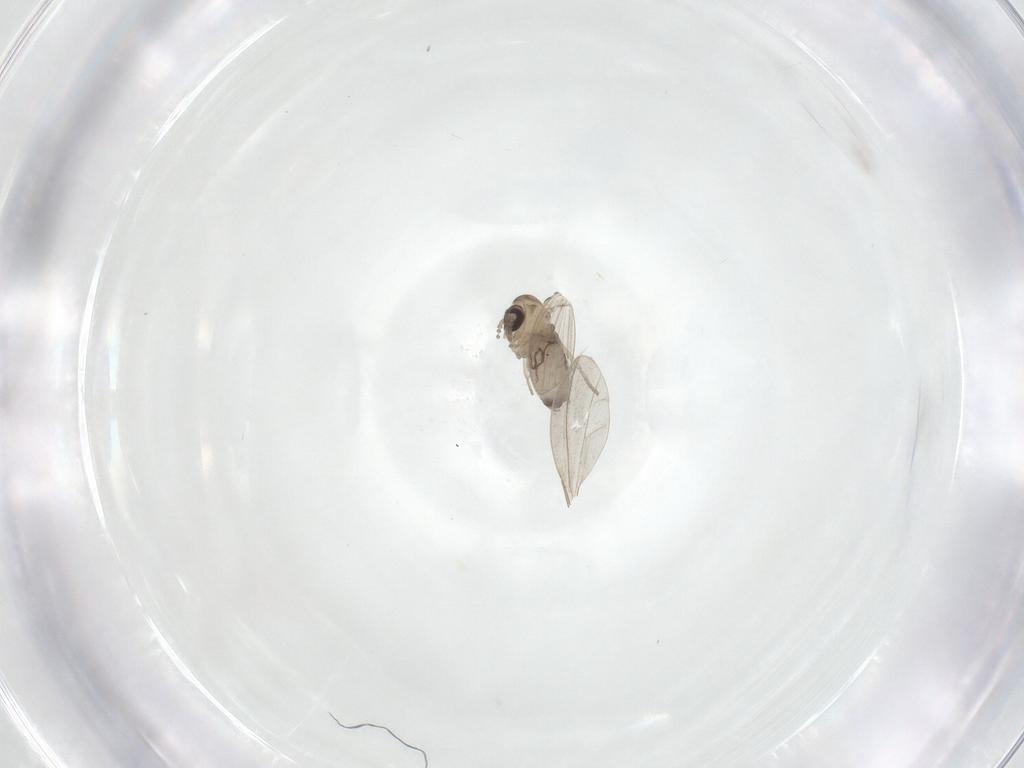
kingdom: Animalia
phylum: Arthropoda
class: Insecta
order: Diptera
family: Psychodidae
